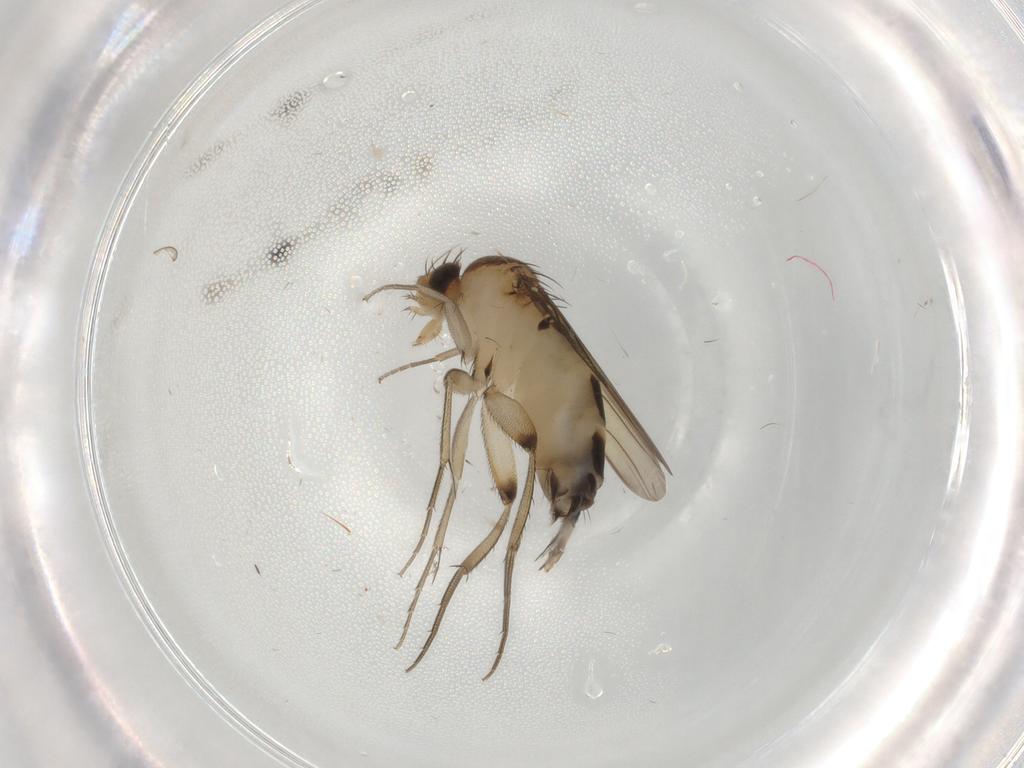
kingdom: Animalia
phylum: Arthropoda
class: Insecta
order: Diptera
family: Phoridae
